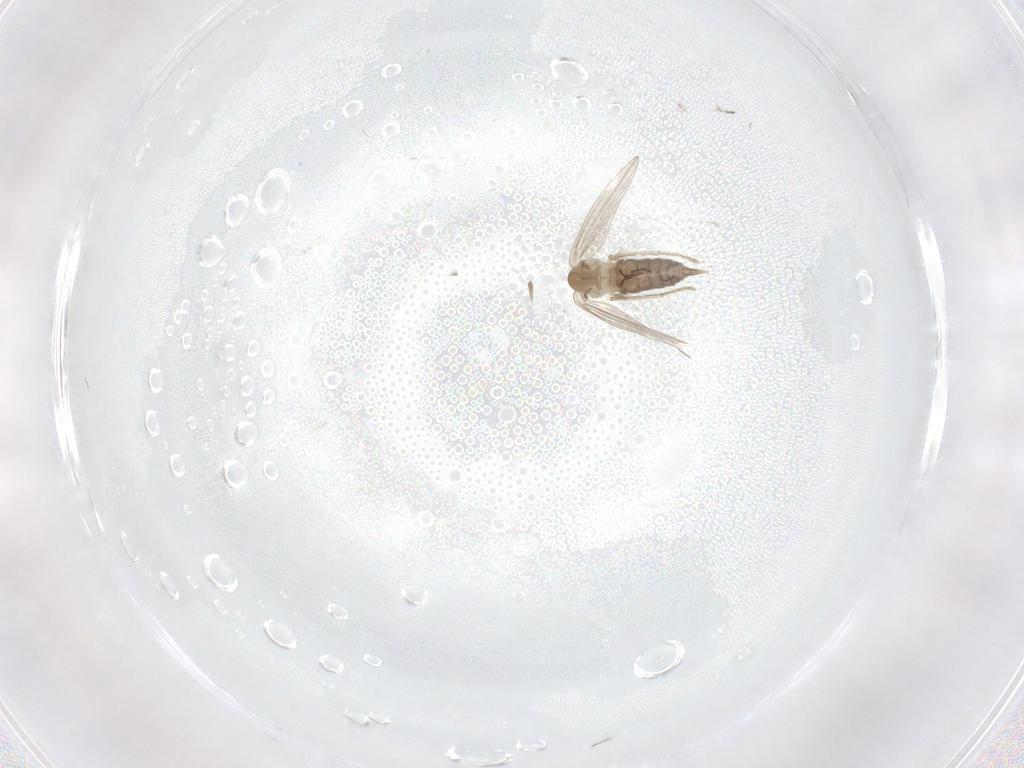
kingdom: Animalia
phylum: Arthropoda
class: Insecta
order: Diptera
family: Psychodidae
